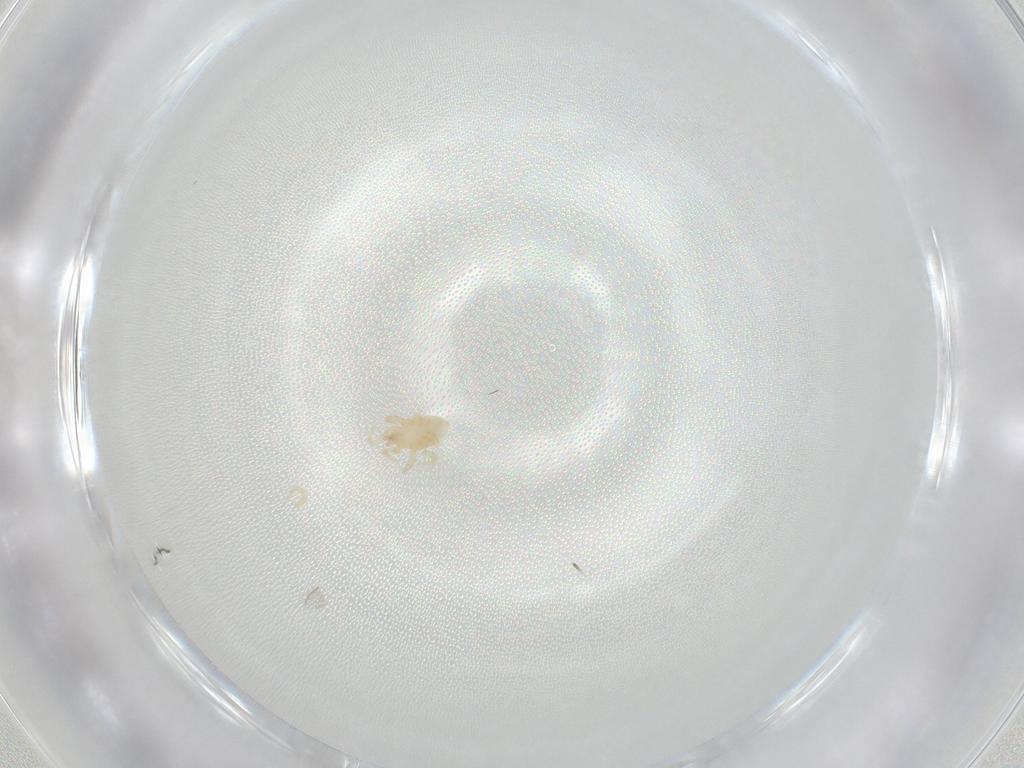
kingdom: Animalia
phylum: Arthropoda
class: Arachnida
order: Mesostigmata
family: Parasitidae
